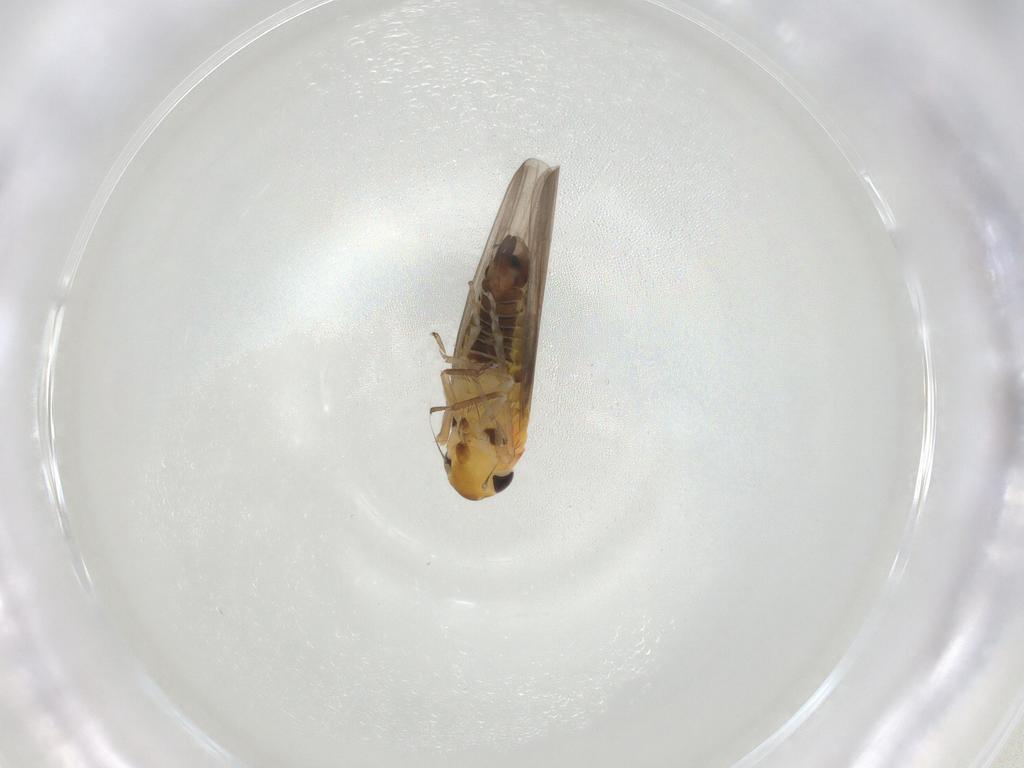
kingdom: Animalia
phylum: Arthropoda
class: Insecta
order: Hemiptera
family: Cicadellidae
